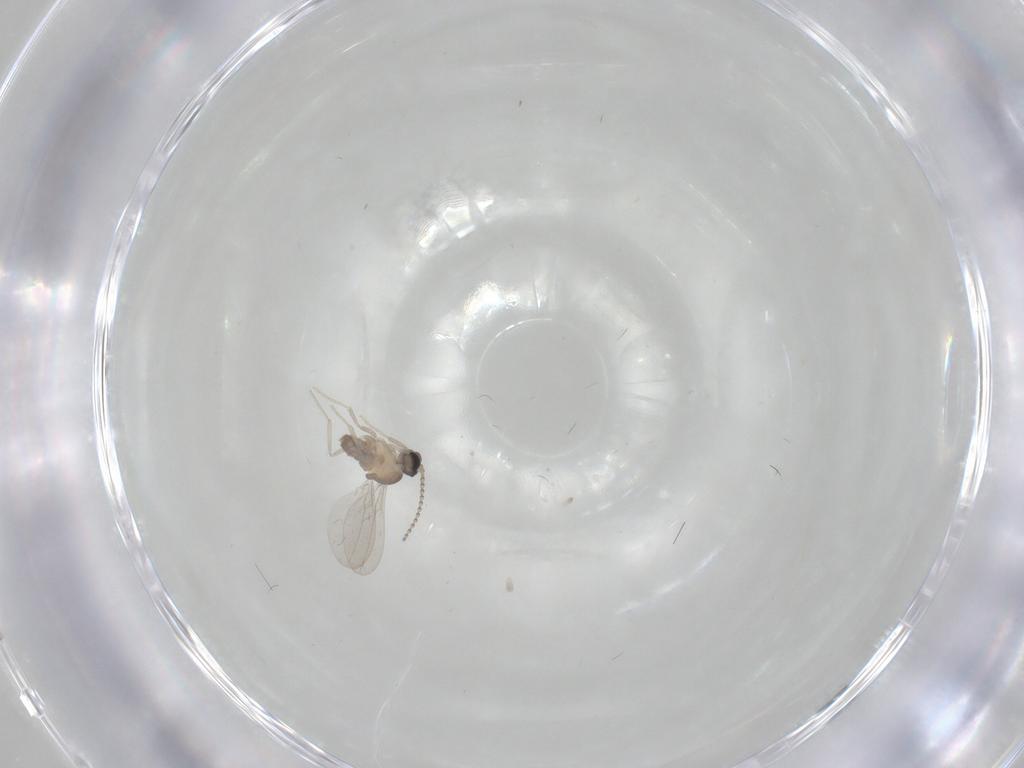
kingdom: Animalia
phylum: Arthropoda
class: Insecta
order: Diptera
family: Cecidomyiidae
